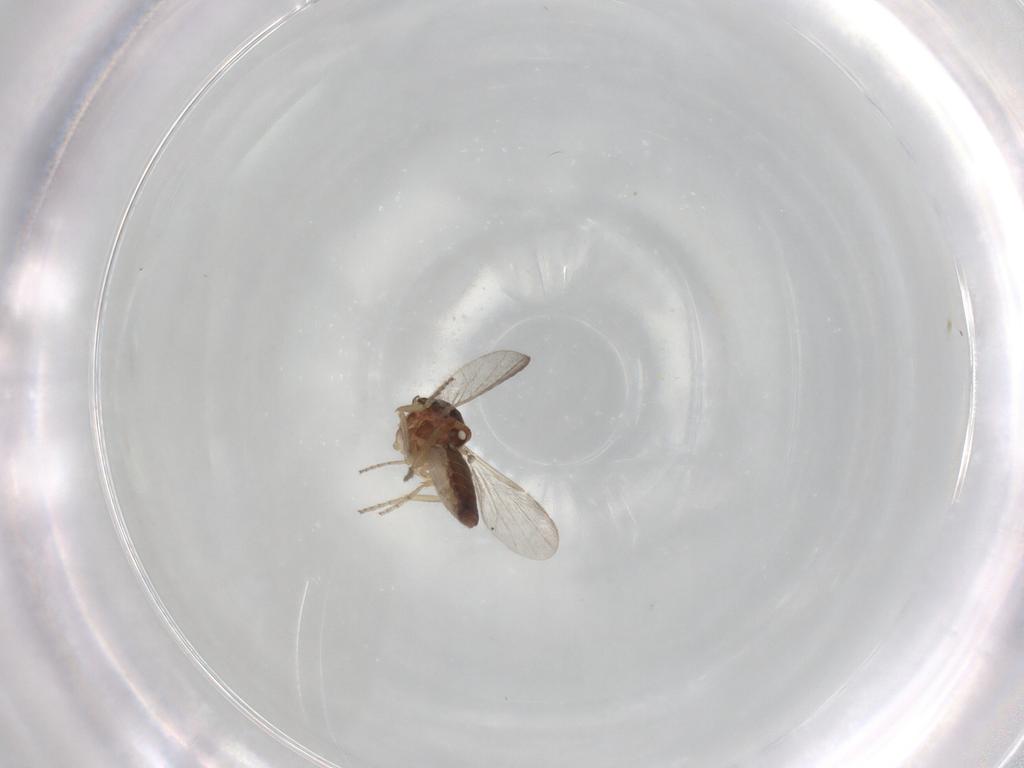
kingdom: Animalia
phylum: Arthropoda
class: Insecta
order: Diptera
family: Ceratopogonidae
